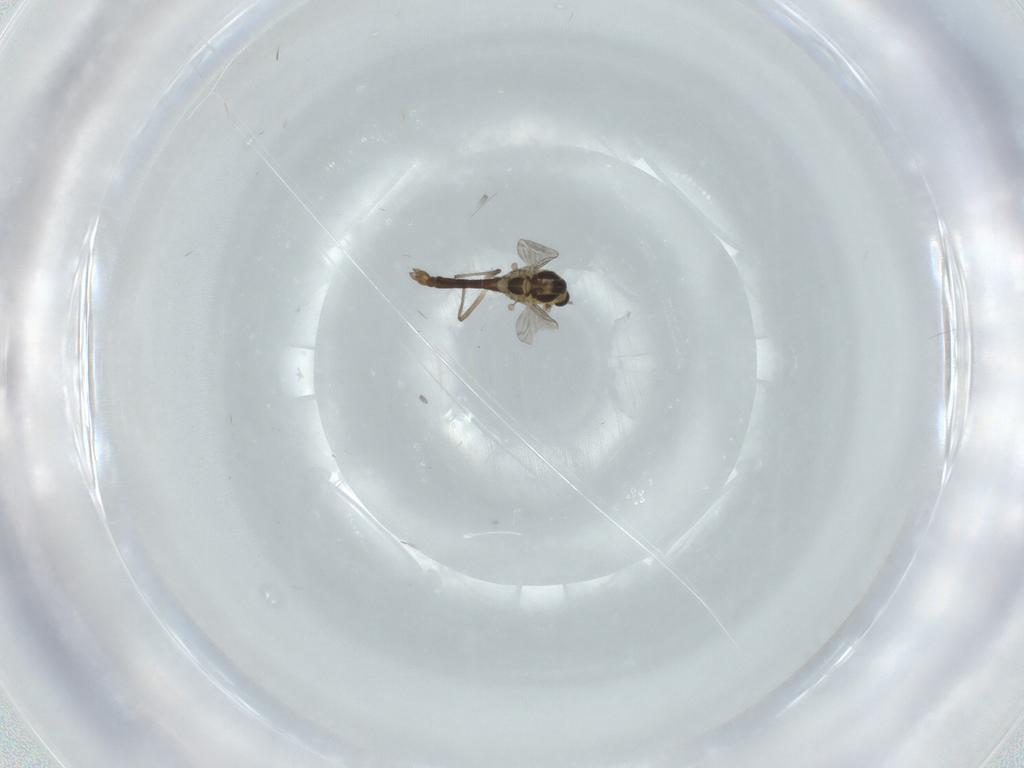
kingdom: Animalia
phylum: Arthropoda
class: Insecta
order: Diptera
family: Chironomidae
